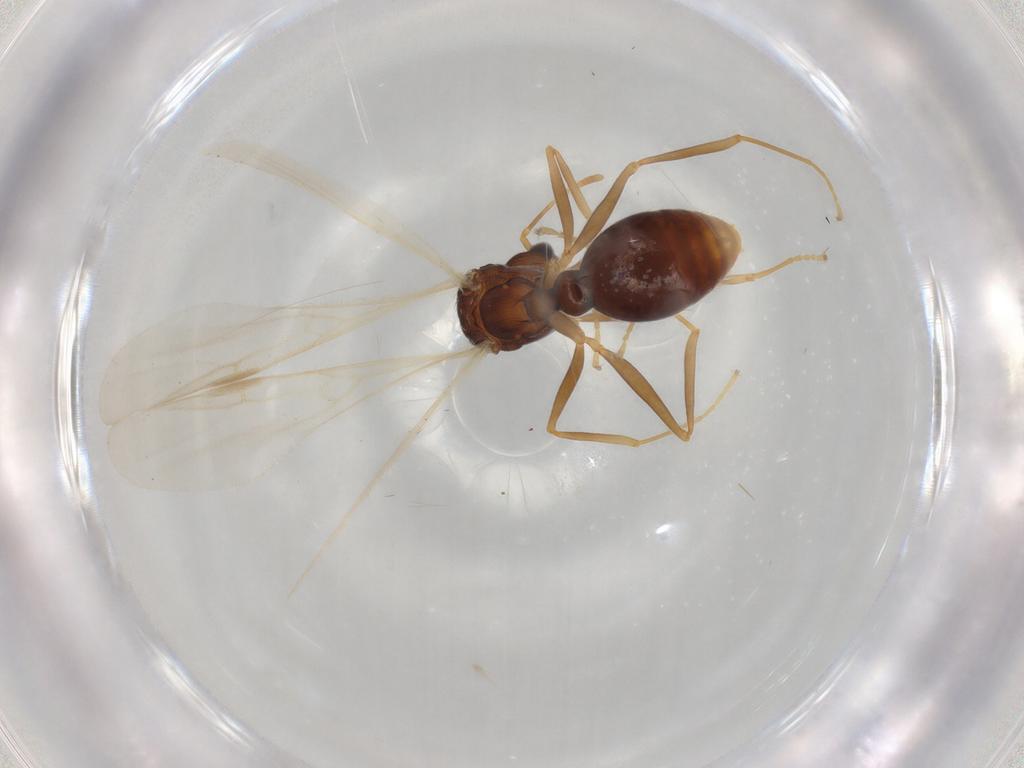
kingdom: Animalia
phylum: Arthropoda
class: Insecta
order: Hymenoptera
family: Formicidae
